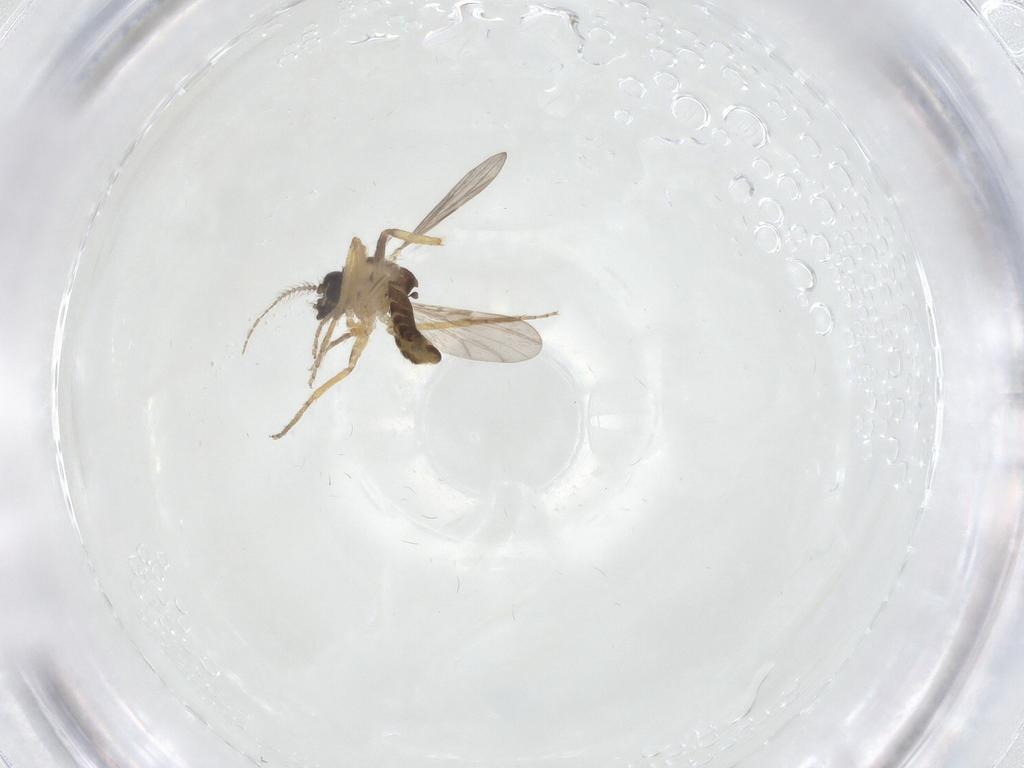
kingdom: Animalia
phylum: Arthropoda
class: Insecta
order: Diptera
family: Ceratopogonidae
